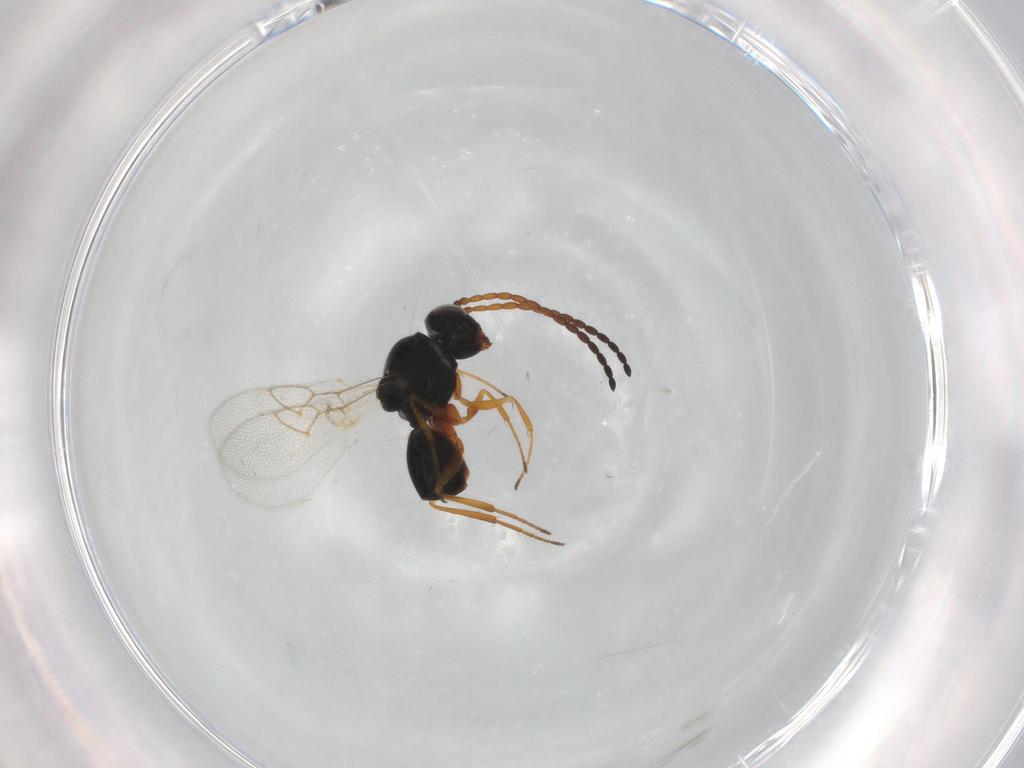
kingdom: Animalia
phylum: Arthropoda
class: Insecta
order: Hymenoptera
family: Figitidae
